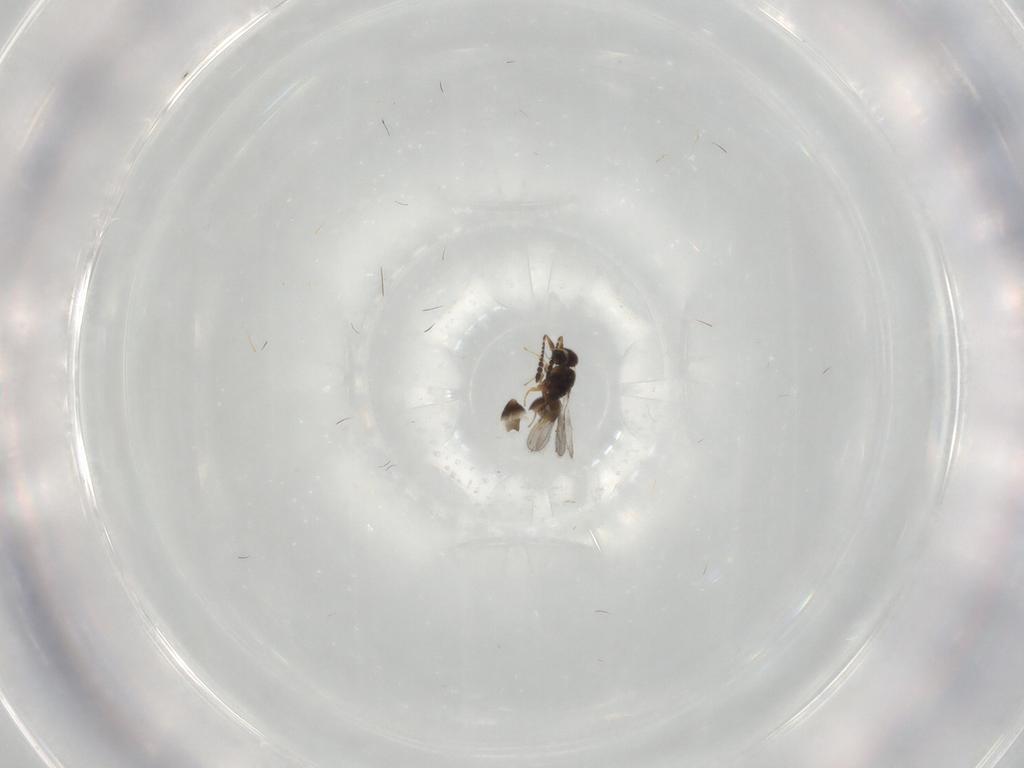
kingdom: Animalia
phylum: Arthropoda
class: Insecta
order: Hymenoptera
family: Ceraphronidae
